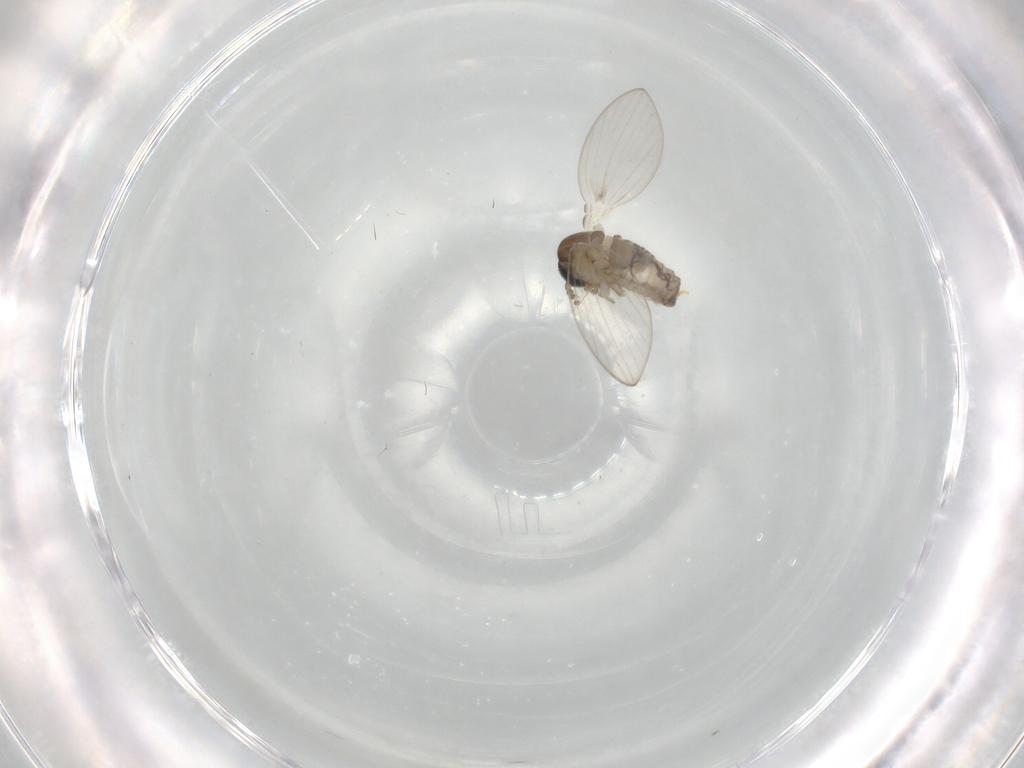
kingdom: Animalia
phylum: Arthropoda
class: Insecta
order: Diptera
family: Psychodidae
